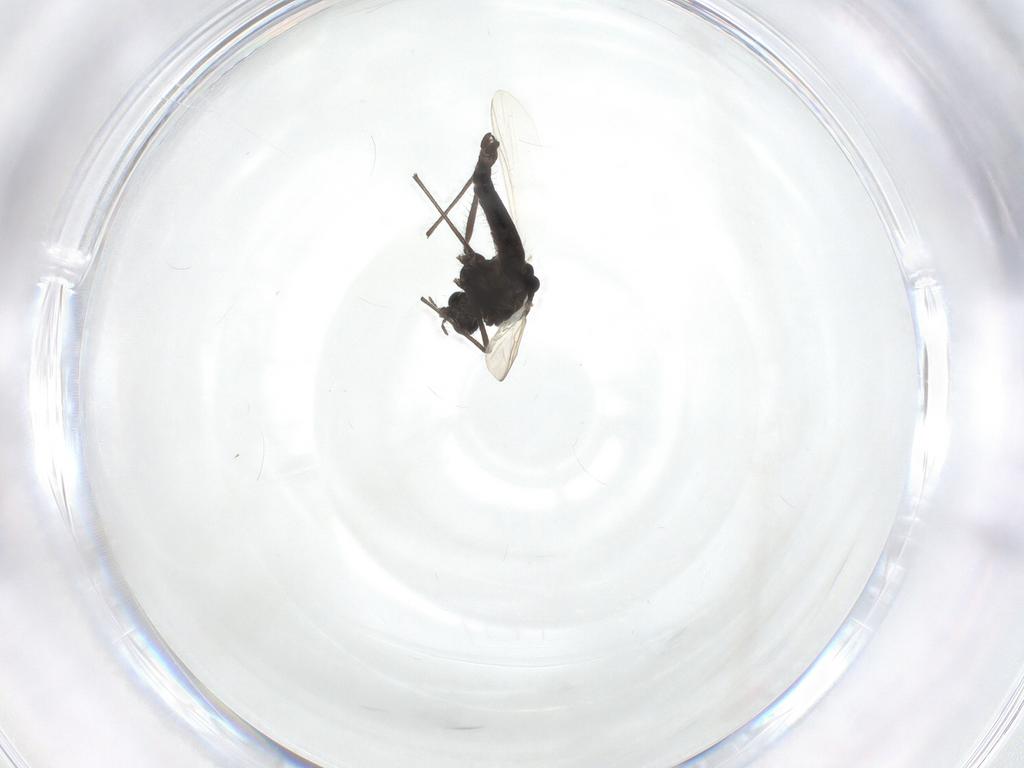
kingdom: Animalia
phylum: Arthropoda
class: Insecta
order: Diptera
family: Chironomidae
